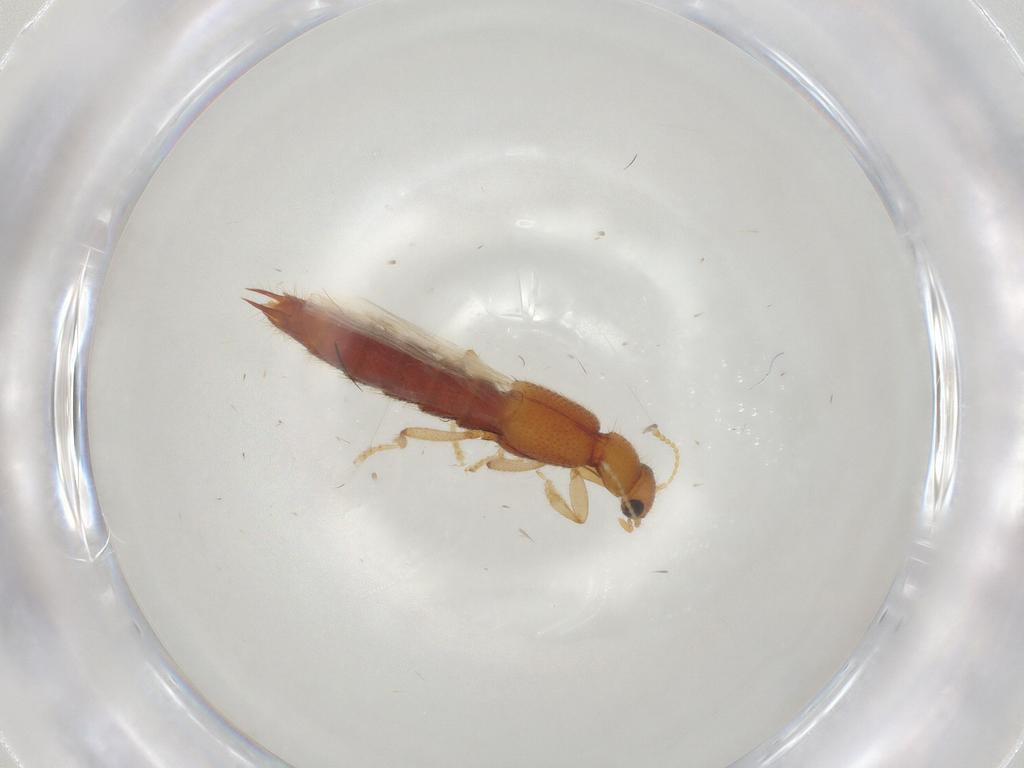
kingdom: Animalia
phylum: Arthropoda
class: Insecta
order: Coleoptera
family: Staphylinidae
